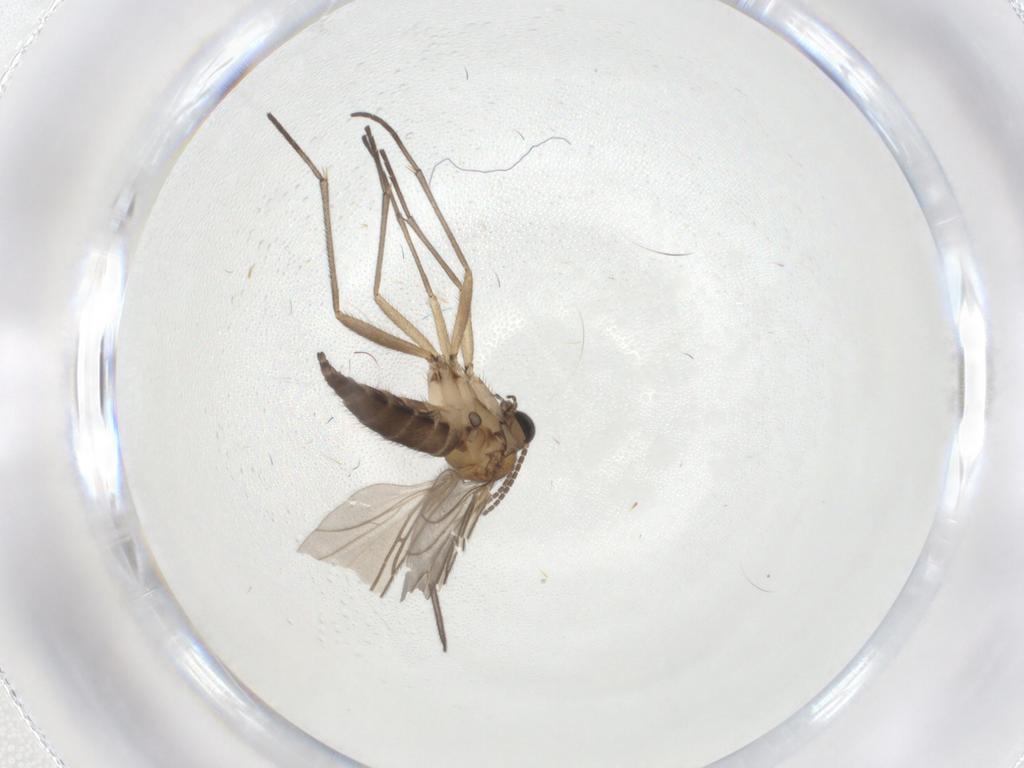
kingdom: Animalia
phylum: Arthropoda
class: Insecta
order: Diptera
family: Sciaridae
